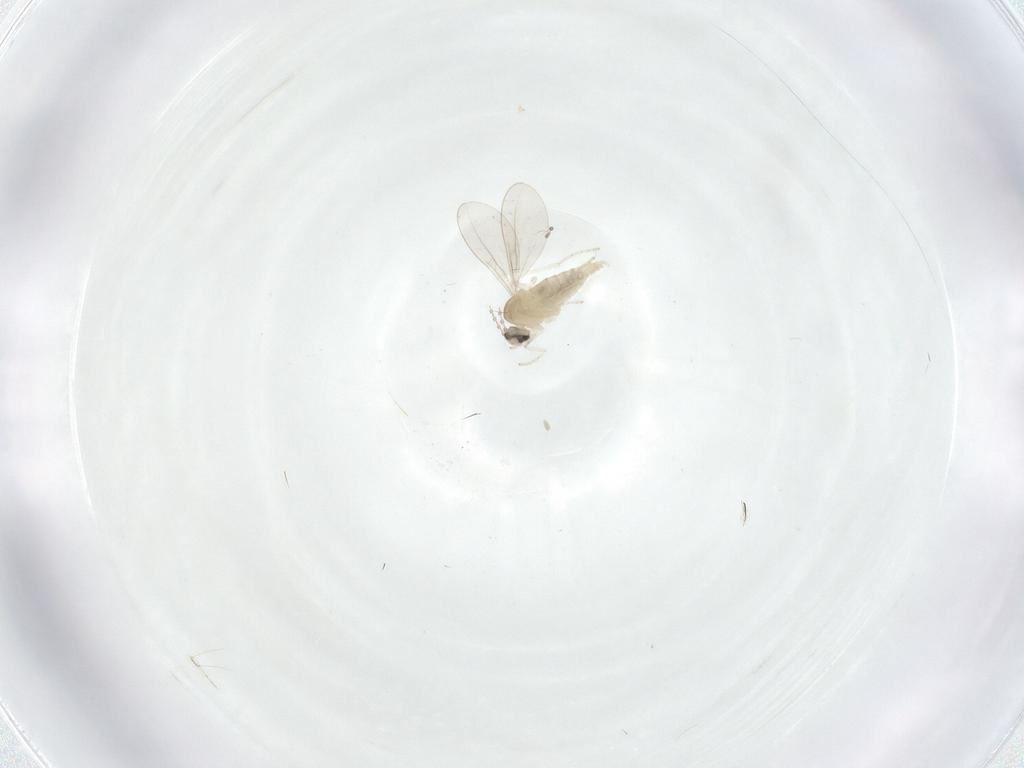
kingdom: Animalia
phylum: Arthropoda
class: Insecta
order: Diptera
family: Cecidomyiidae
